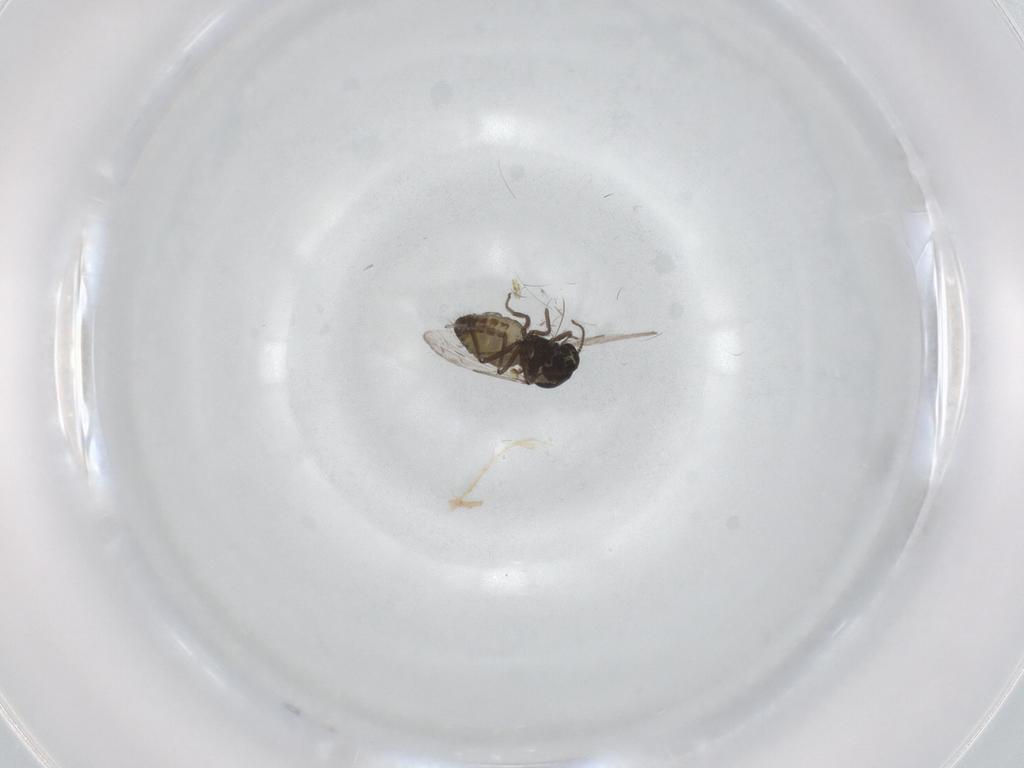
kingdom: Animalia
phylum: Arthropoda
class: Insecta
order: Diptera
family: Ceratopogonidae
